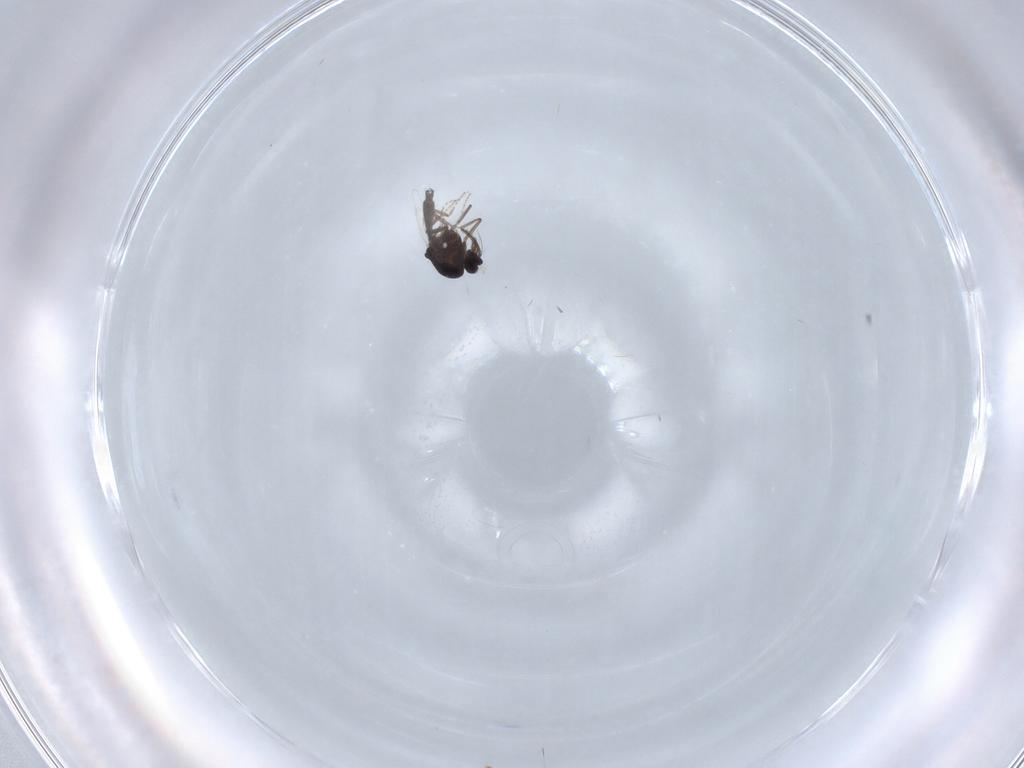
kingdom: Animalia
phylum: Arthropoda
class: Insecta
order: Diptera
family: Ceratopogonidae
